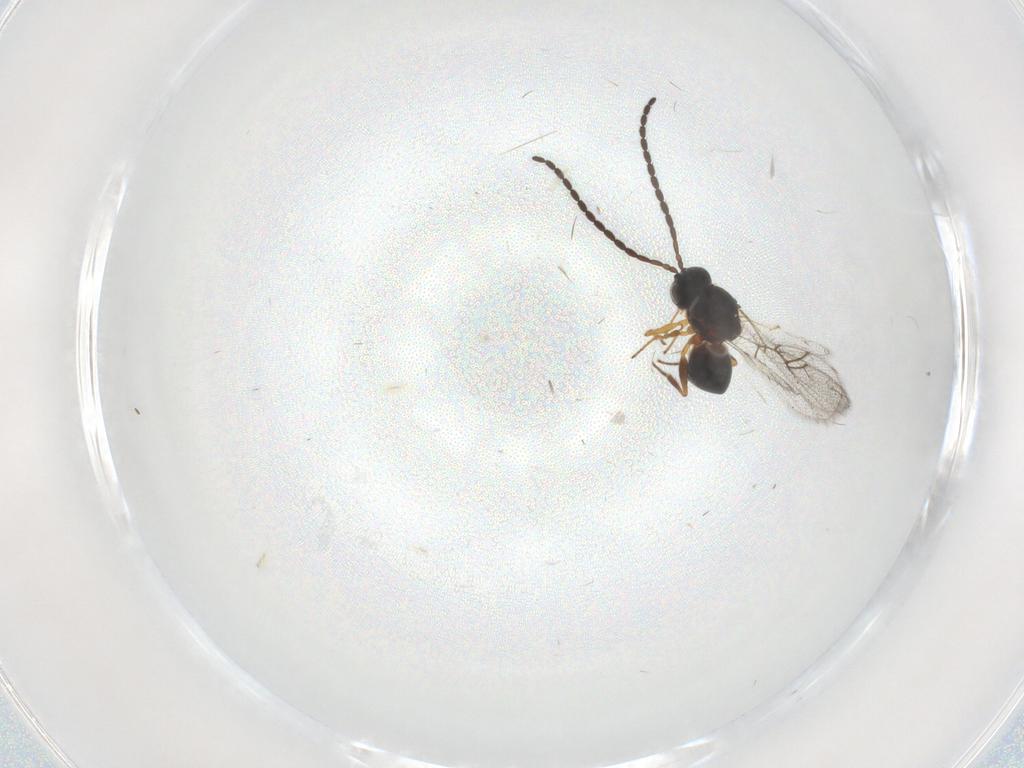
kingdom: Animalia
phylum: Arthropoda
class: Insecta
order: Hymenoptera
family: Figitidae
